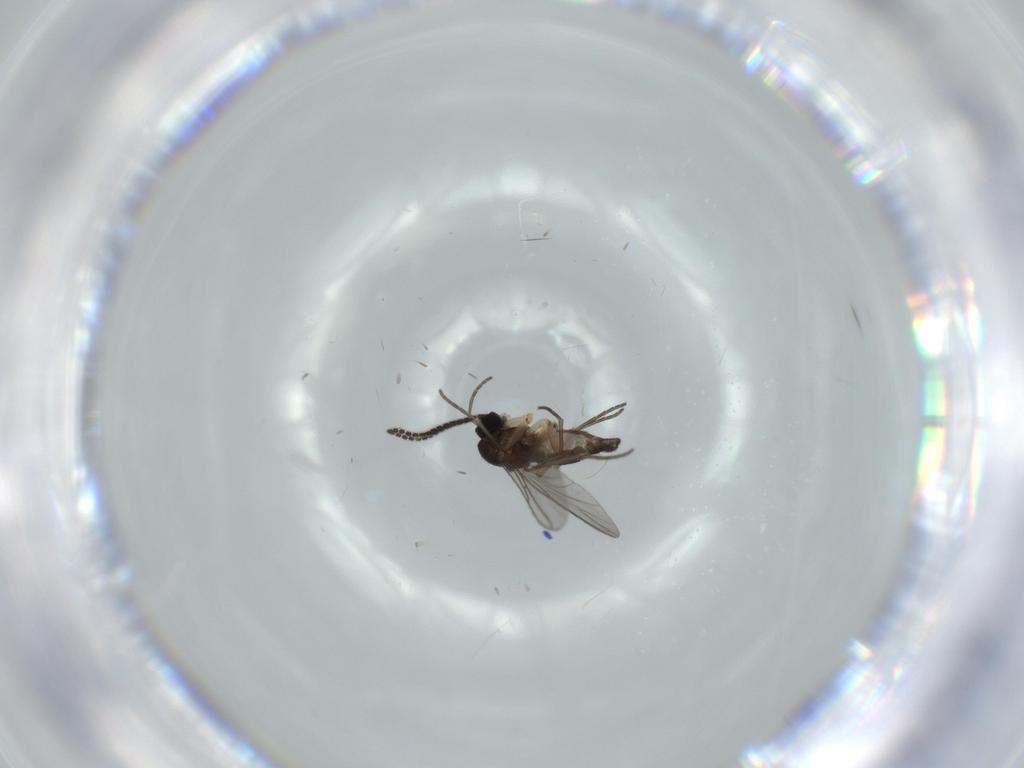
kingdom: Animalia
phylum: Arthropoda
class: Insecta
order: Diptera
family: Sciaridae
